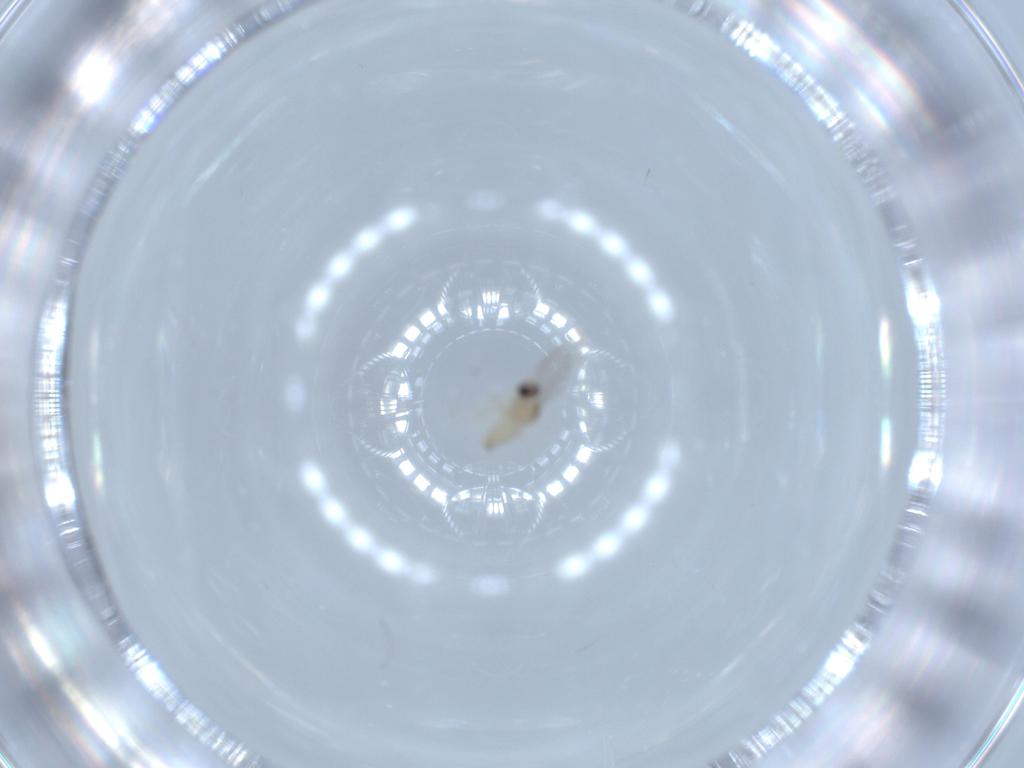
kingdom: Animalia
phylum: Arthropoda
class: Insecta
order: Diptera
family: Cecidomyiidae
